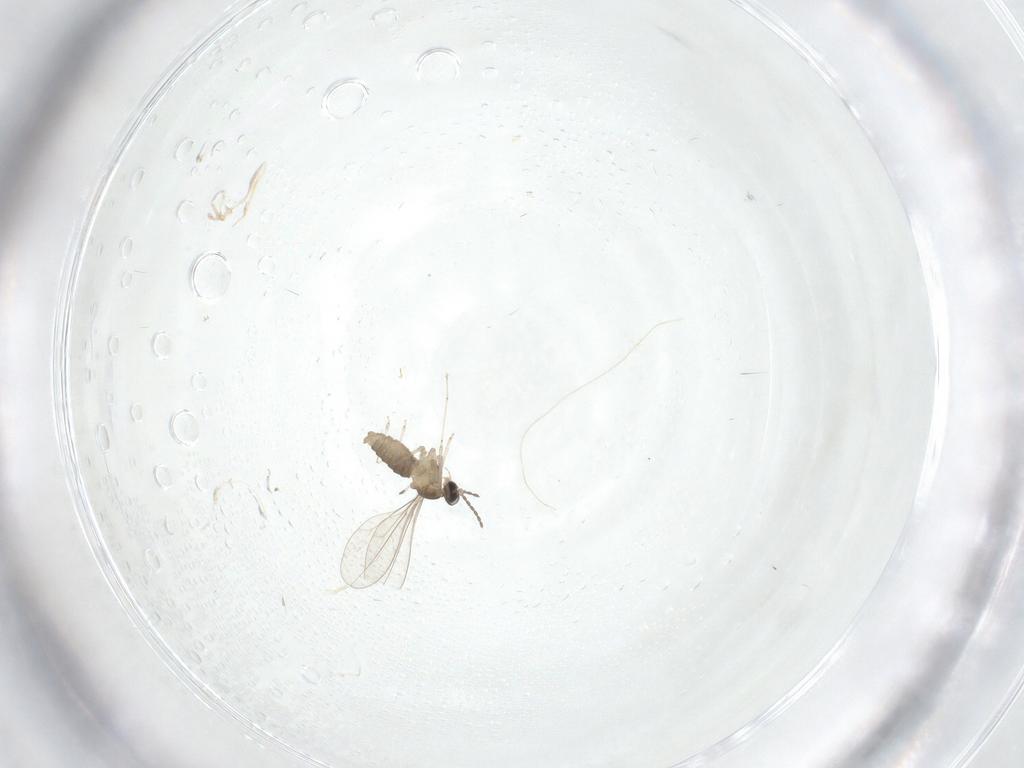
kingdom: Animalia
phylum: Arthropoda
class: Insecta
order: Diptera
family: Cecidomyiidae
